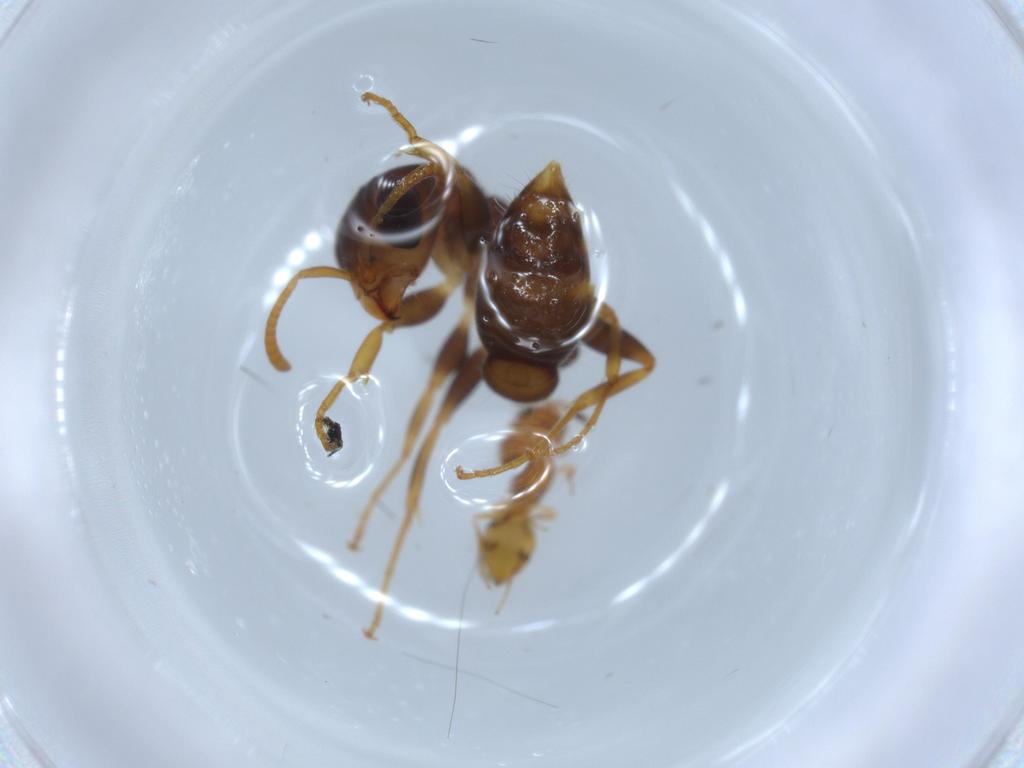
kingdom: Animalia
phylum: Arthropoda
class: Insecta
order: Hymenoptera
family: Formicidae
